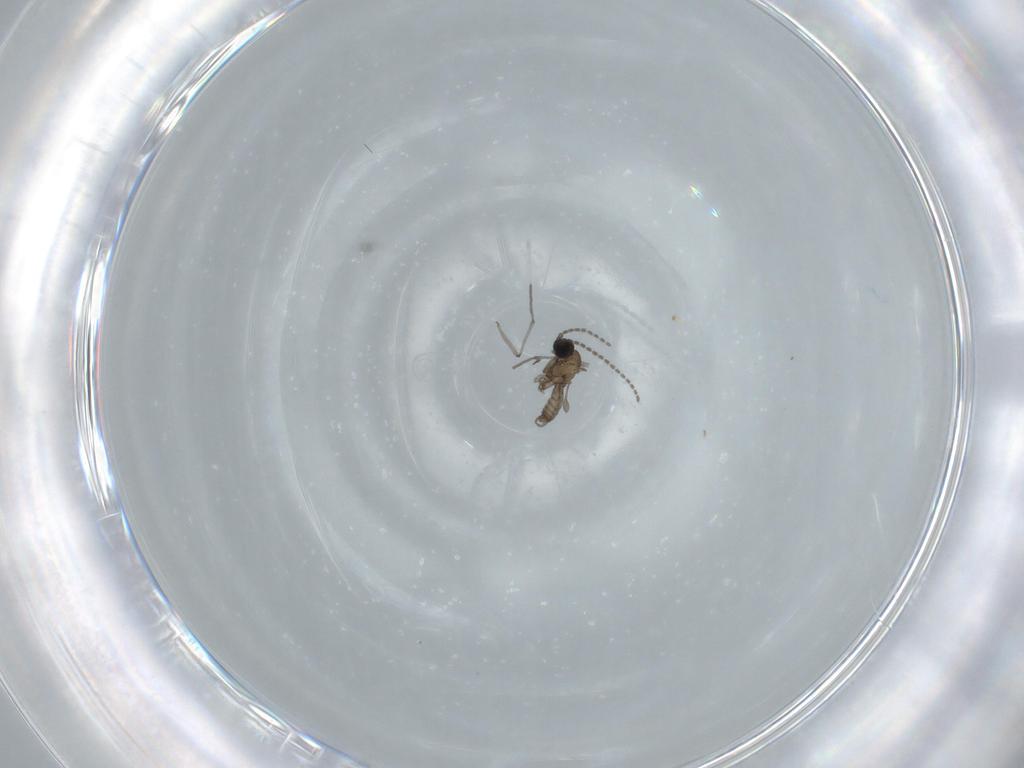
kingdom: Animalia
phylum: Arthropoda
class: Insecta
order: Diptera
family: Sciaridae
